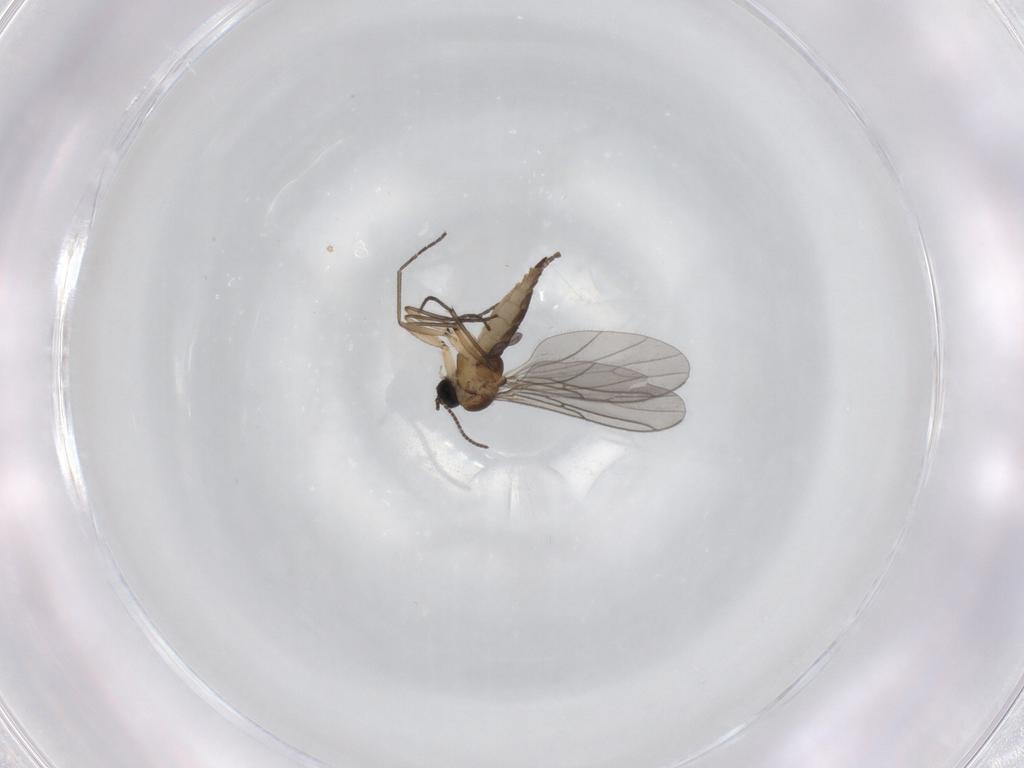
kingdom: Animalia
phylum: Arthropoda
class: Insecta
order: Diptera
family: Sciaridae
